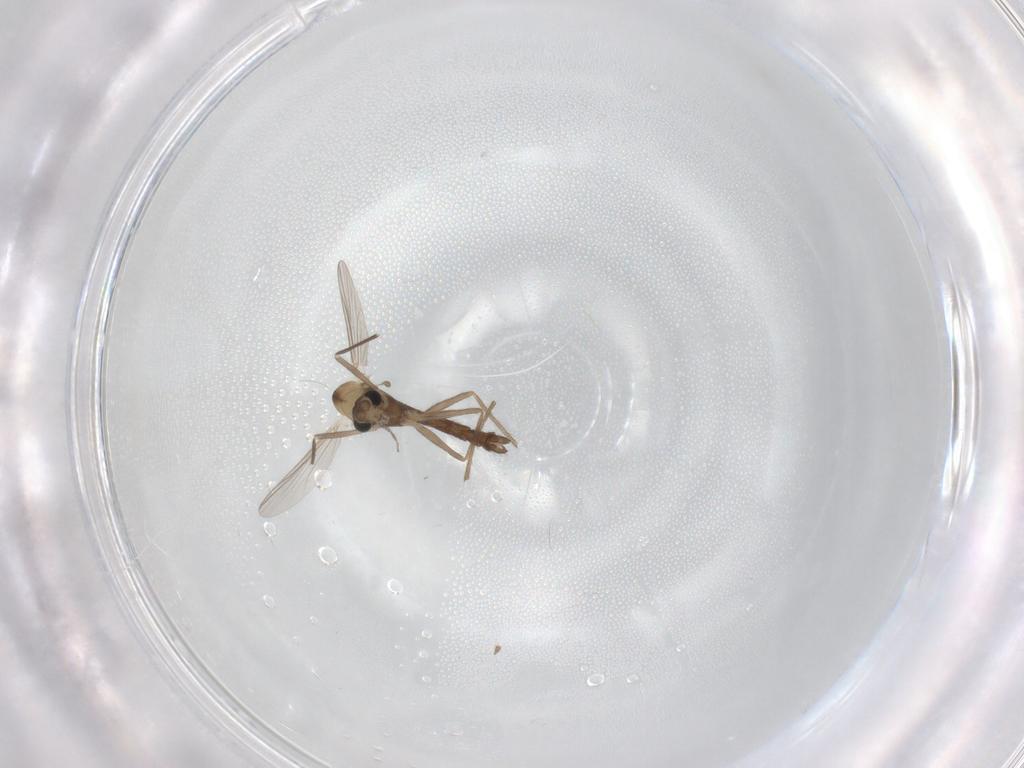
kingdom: Animalia
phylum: Arthropoda
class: Insecta
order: Diptera
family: Chironomidae
